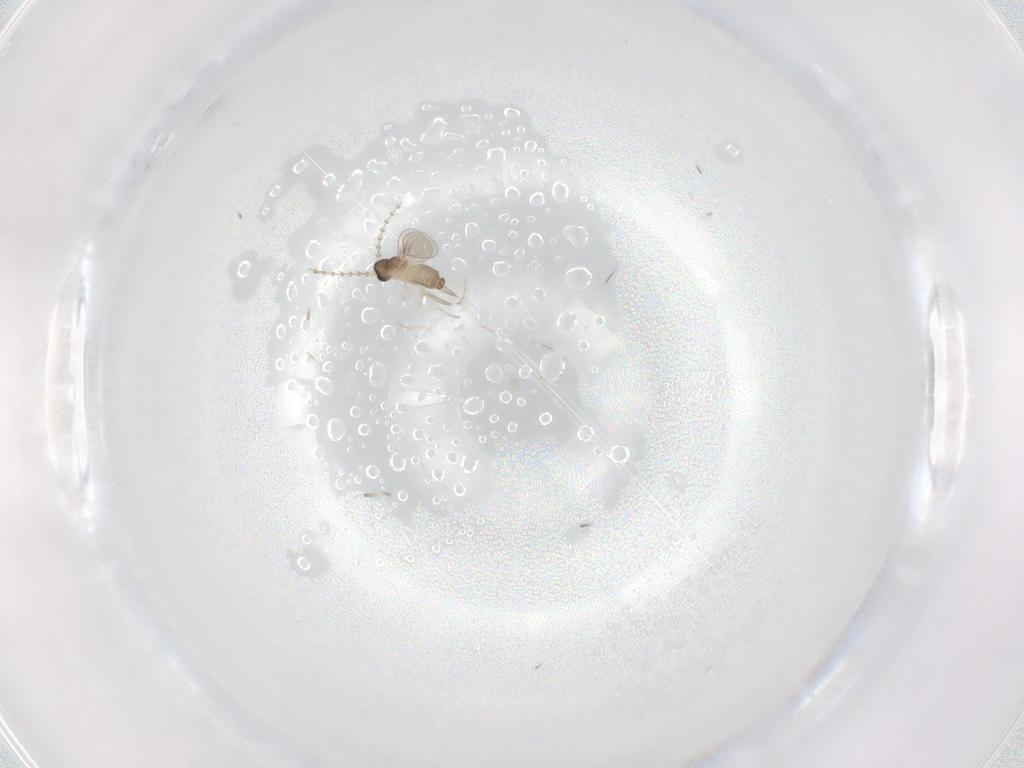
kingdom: Animalia
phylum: Arthropoda
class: Insecta
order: Diptera
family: Cecidomyiidae
